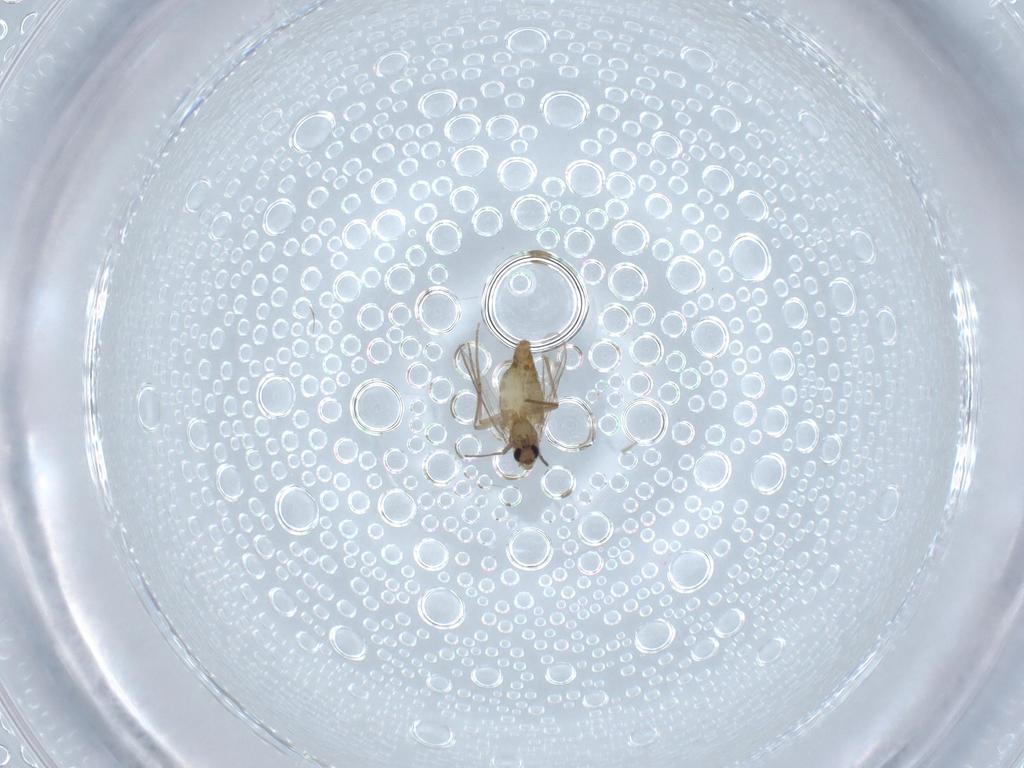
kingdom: Animalia
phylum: Arthropoda
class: Insecta
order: Diptera
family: Chironomidae
